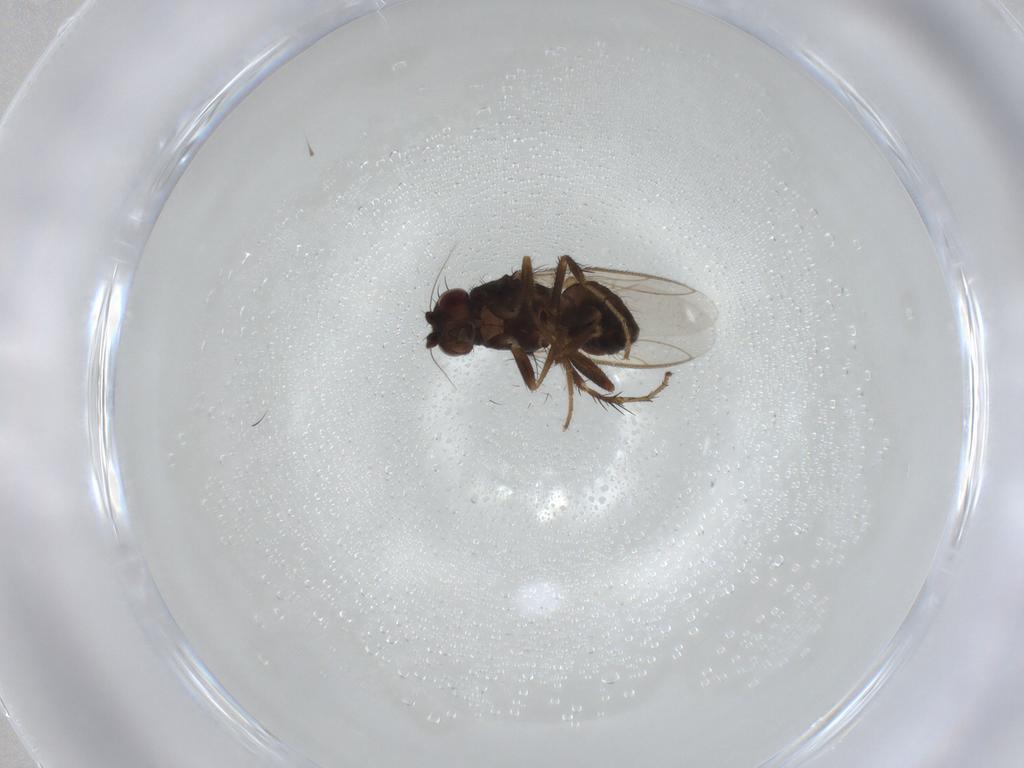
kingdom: Animalia
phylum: Arthropoda
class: Insecta
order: Diptera
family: Sphaeroceridae
